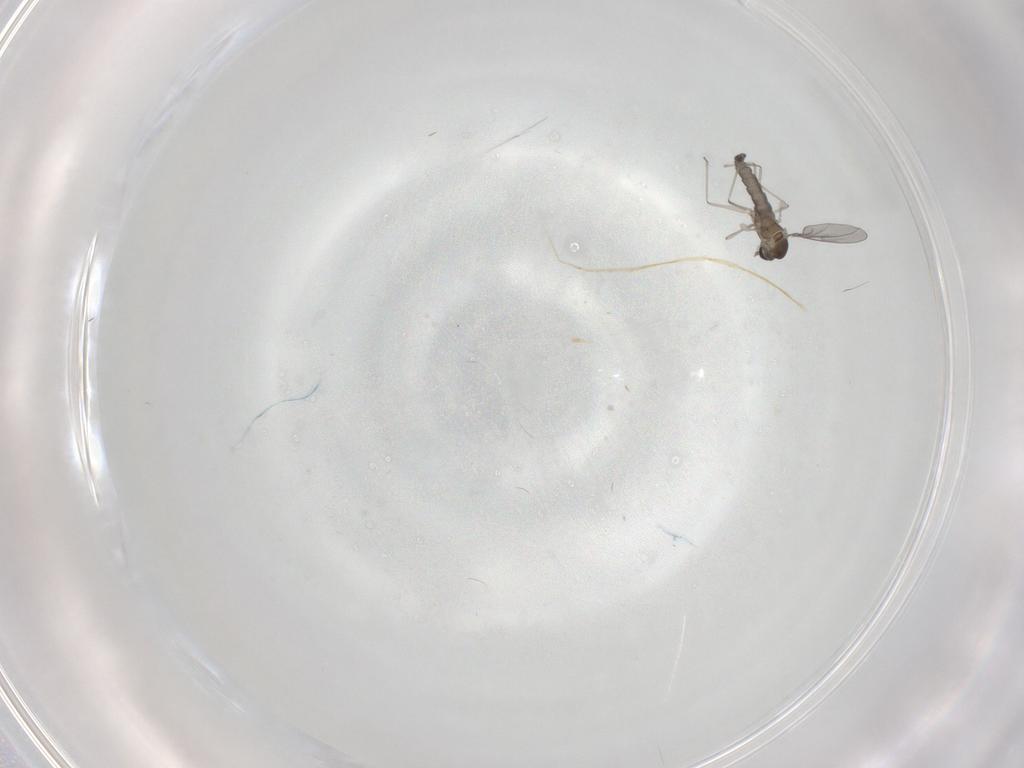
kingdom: Animalia
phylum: Arthropoda
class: Insecta
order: Diptera
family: Cecidomyiidae
